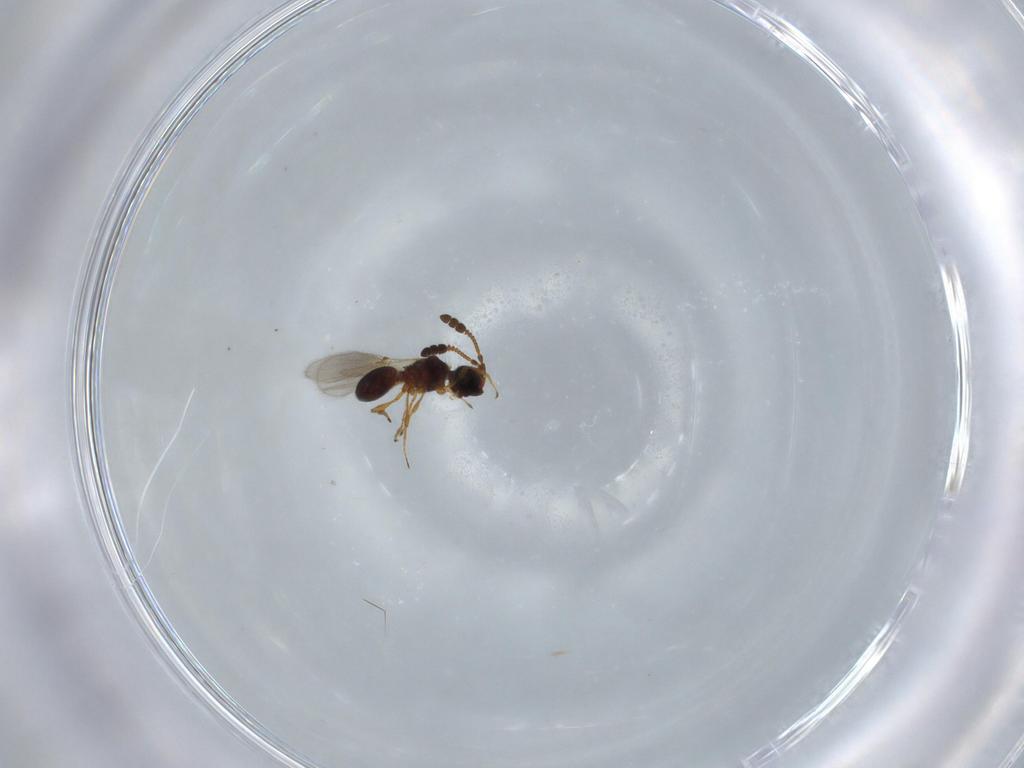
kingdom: Animalia
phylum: Arthropoda
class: Insecta
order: Hymenoptera
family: Diapriidae
